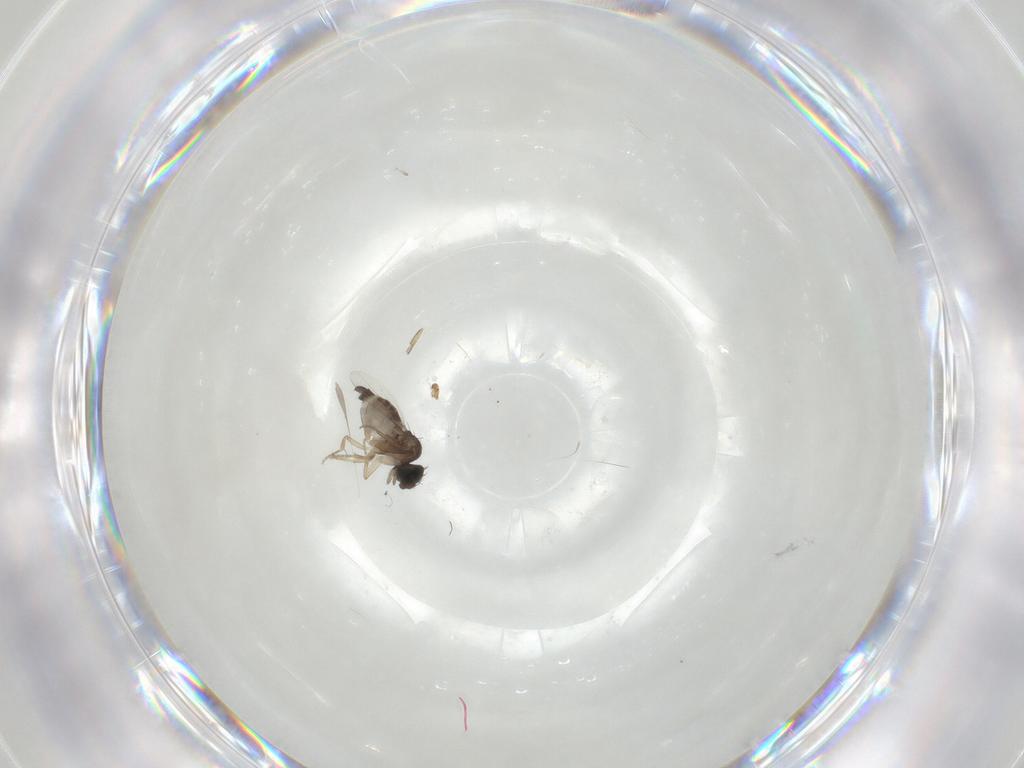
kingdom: Animalia
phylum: Arthropoda
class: Insecta
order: Diptera
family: Phoridae
